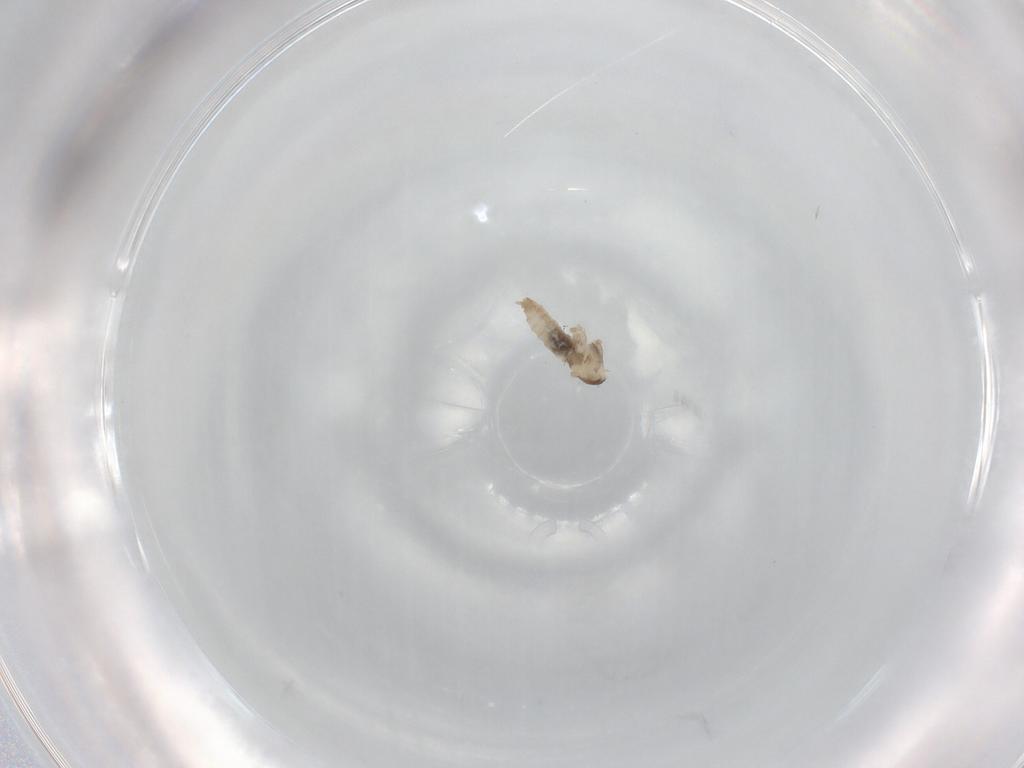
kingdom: Animalia
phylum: Arthropoda
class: Insecta
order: Diptera
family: Cecidomyiidae
